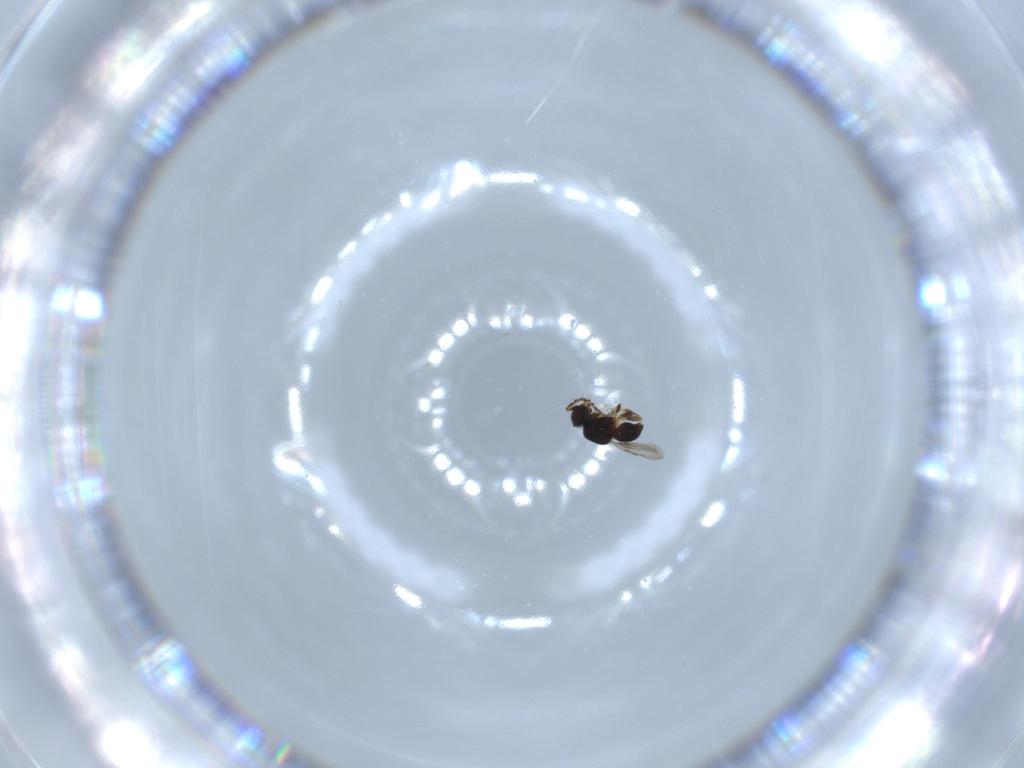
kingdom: Animalia
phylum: Arthropoda
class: Insecta
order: Hymenoptera
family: Agaonidae
